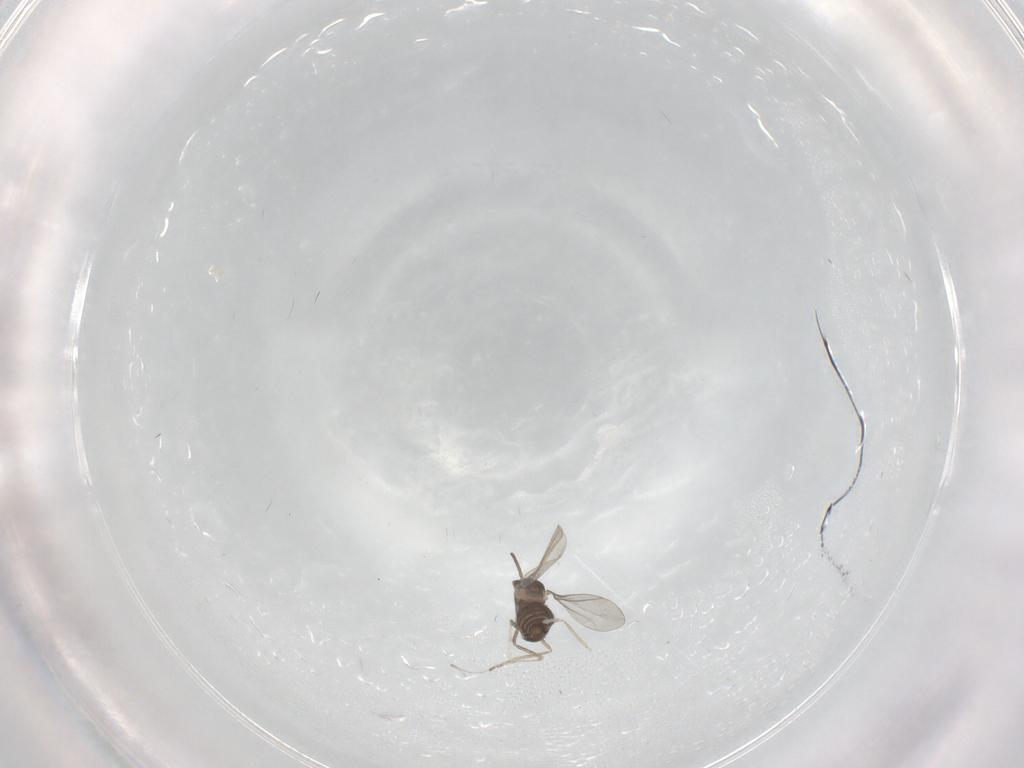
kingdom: Animalia
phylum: Arthropoda
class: Insecta
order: Diptera
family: Cecidomyiidae
